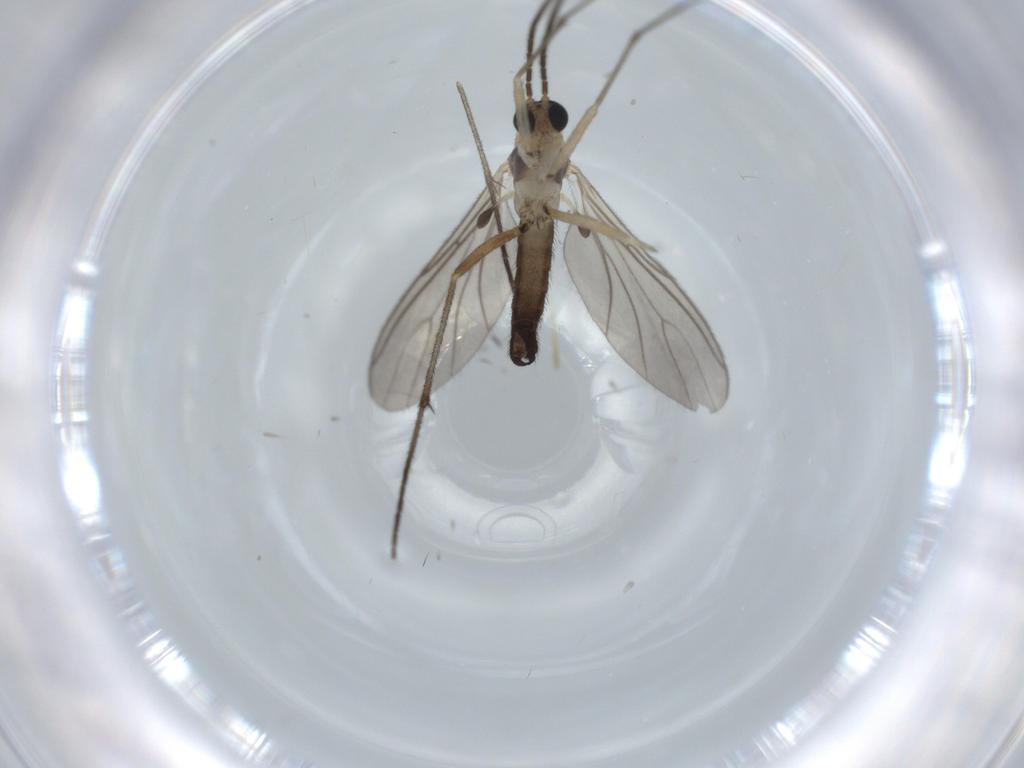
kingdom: Animalia
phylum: Arthropoda
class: Insecta
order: Diptera
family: Sciaridae
